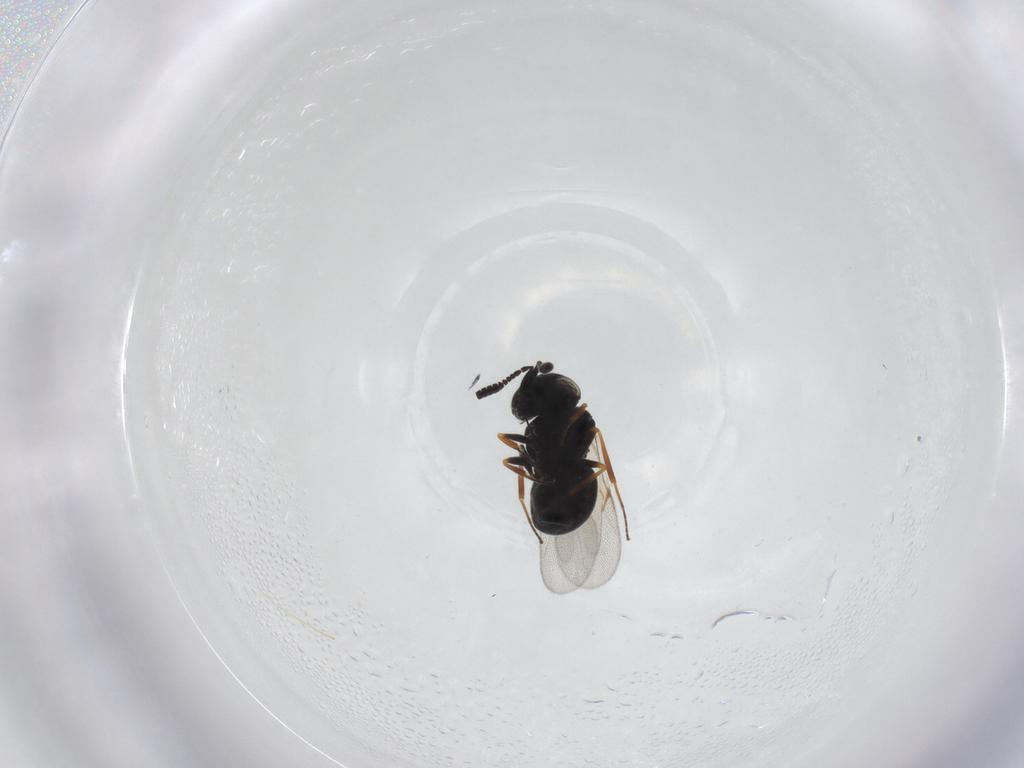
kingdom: Animalia
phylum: Arthropoda
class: Insecta
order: Hymenoptera
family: Scelionidae
